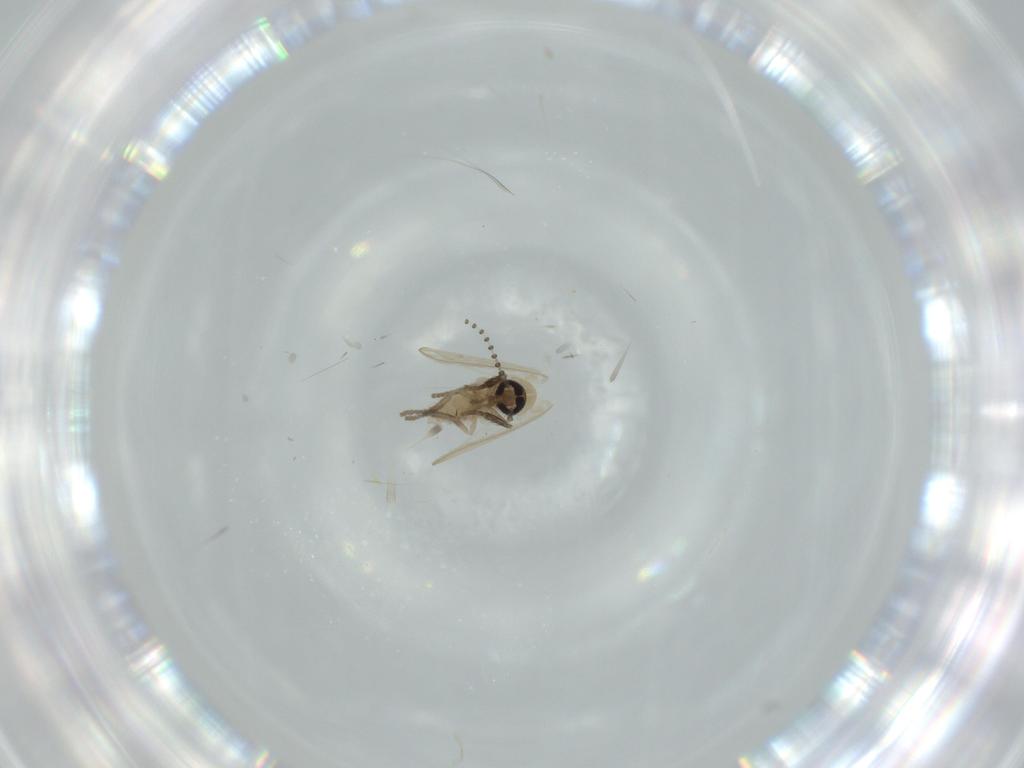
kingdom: Animalia
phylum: Arthropoda
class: Insecta
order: Diptera
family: Psychodidae
